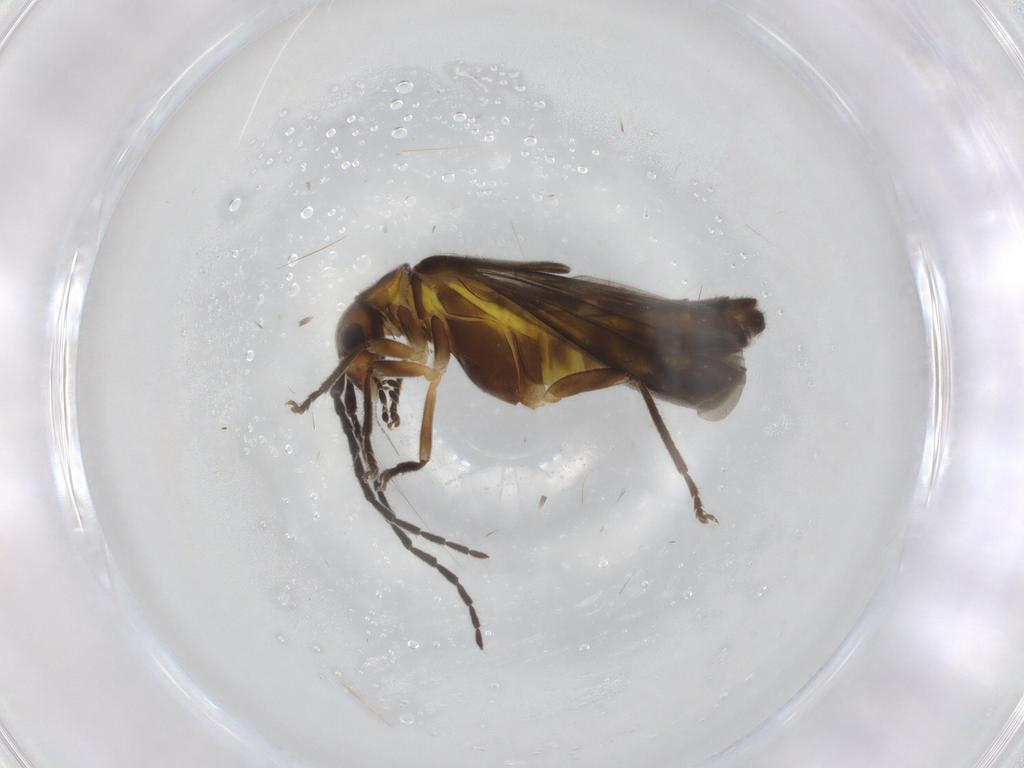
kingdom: Animalia
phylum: Arthropoda
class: Insecta
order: Coleoptera
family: Cantharidae
